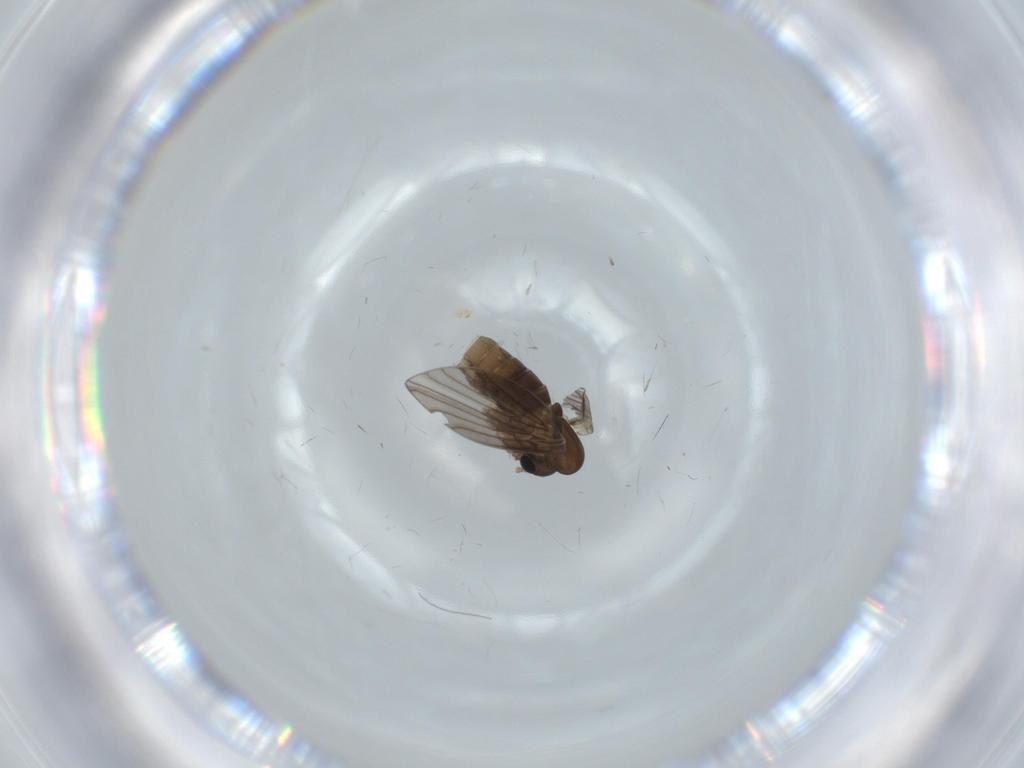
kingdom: Animalia
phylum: Arthropoda
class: Insecta
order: Diptera
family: Psychodidae
